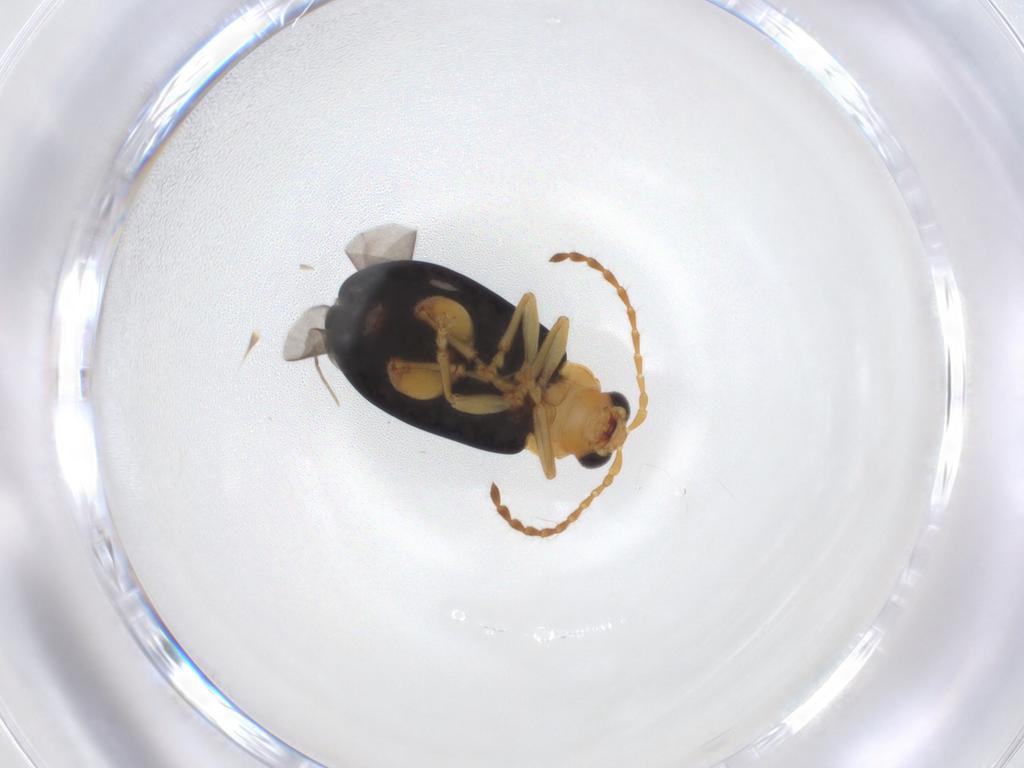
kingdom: Animalia
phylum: Arthropoda
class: Insecta
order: Coleoptera
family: Chrysomelidae
